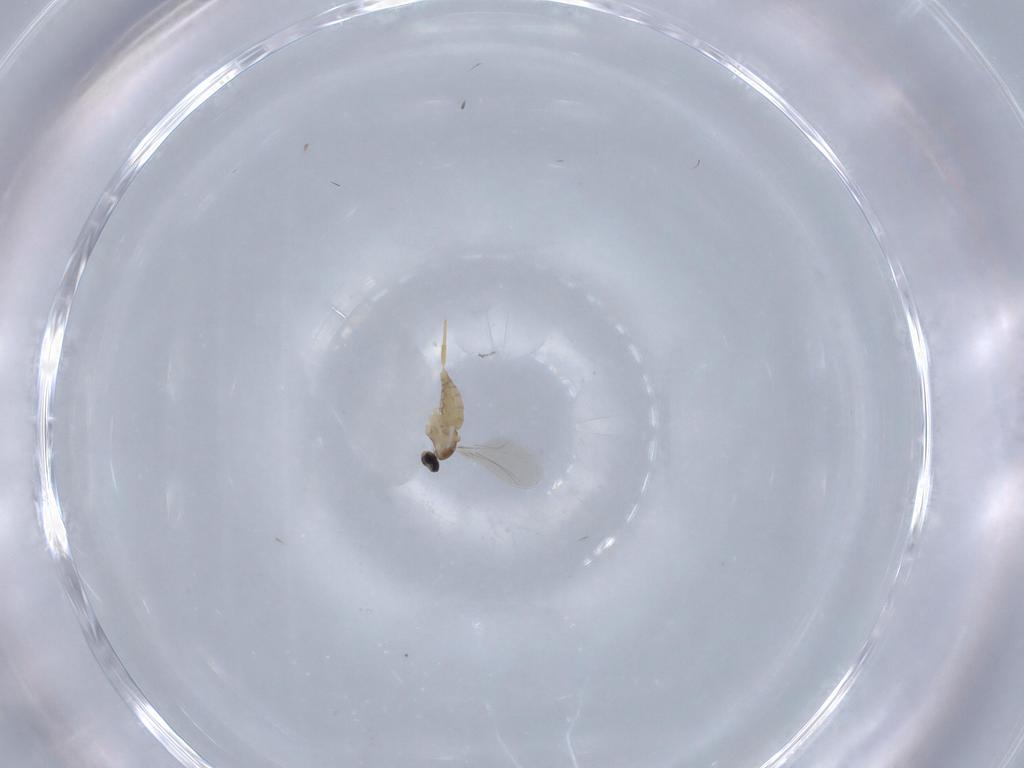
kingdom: Animalia
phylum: Arthropoda
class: Insecta
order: Diptera
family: Cecidomyiidae
